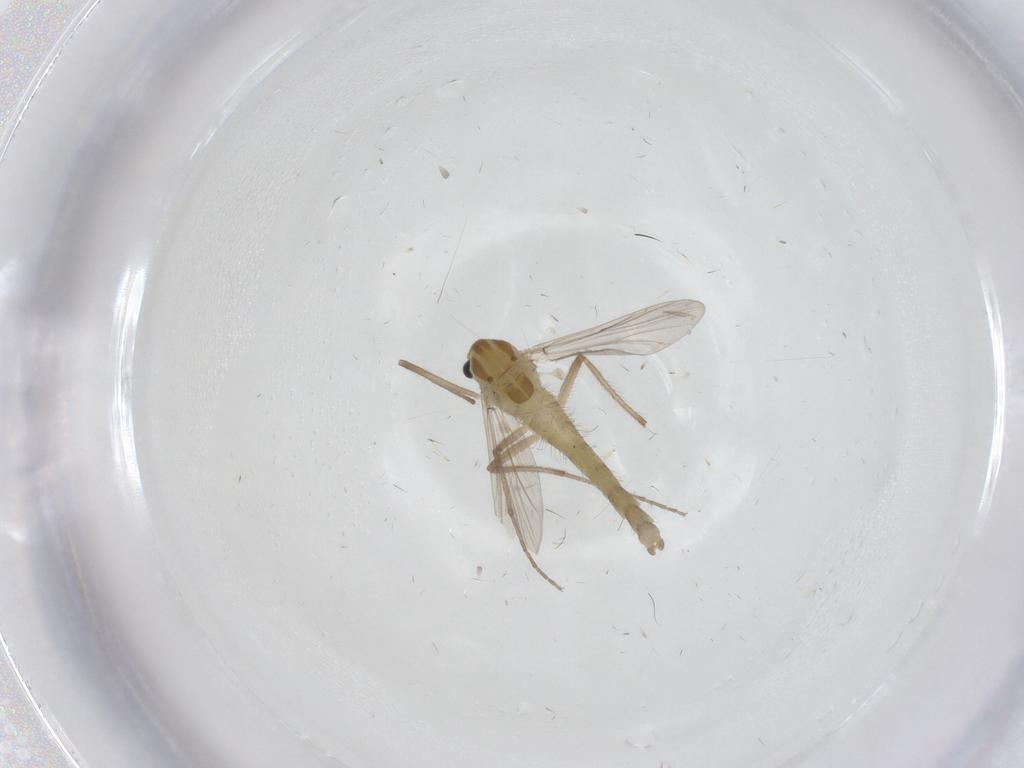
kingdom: Animalia
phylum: Arthropoda
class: Insecta
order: Diptera
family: Chironomidae
